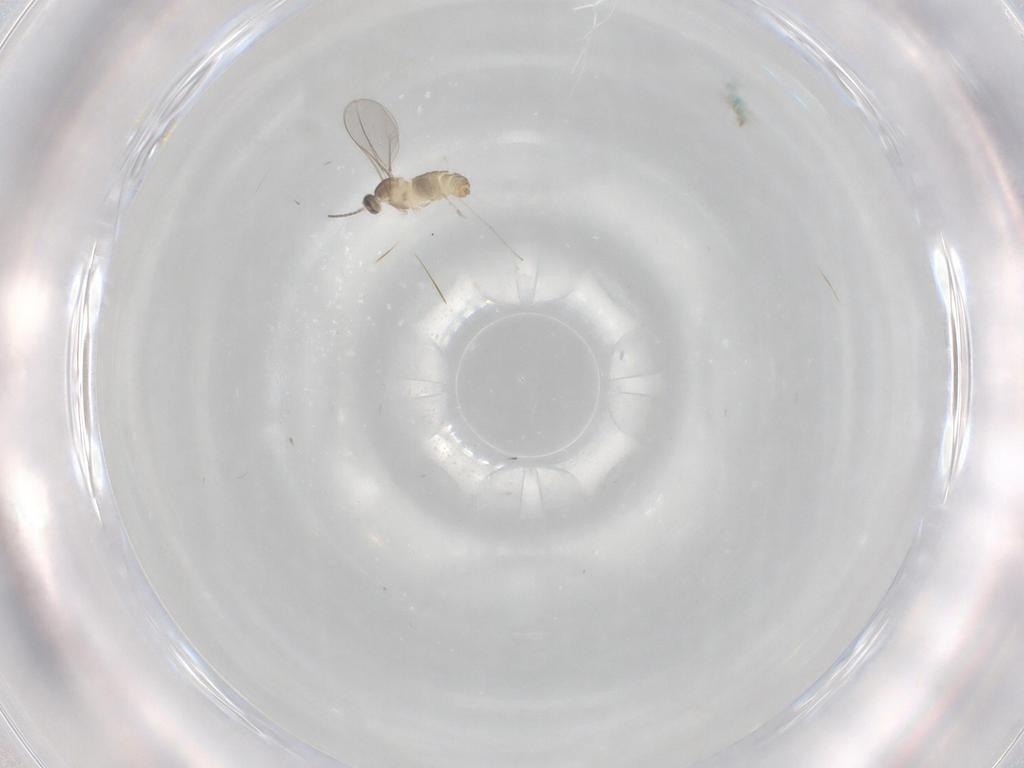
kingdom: Animalia
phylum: Arthropoda
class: Insecta
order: Diptera
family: Cecidomyiidae
